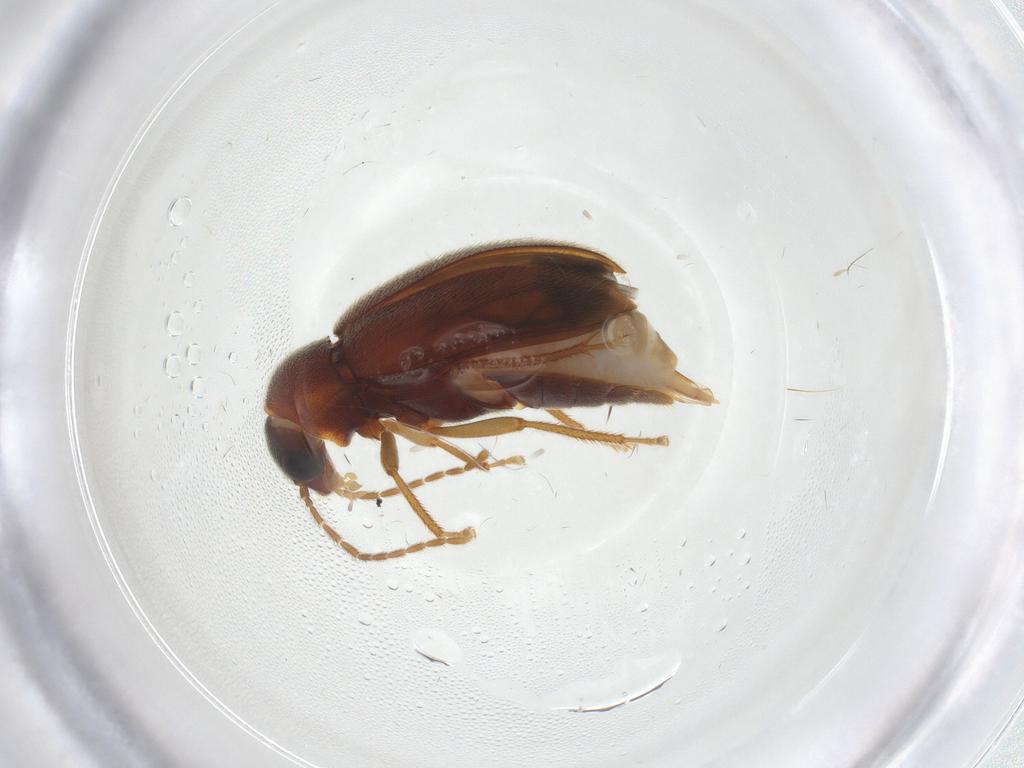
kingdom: Animalia
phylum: Arthropoda
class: Insecta
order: Coleoptera
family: Ptilodactylidae
